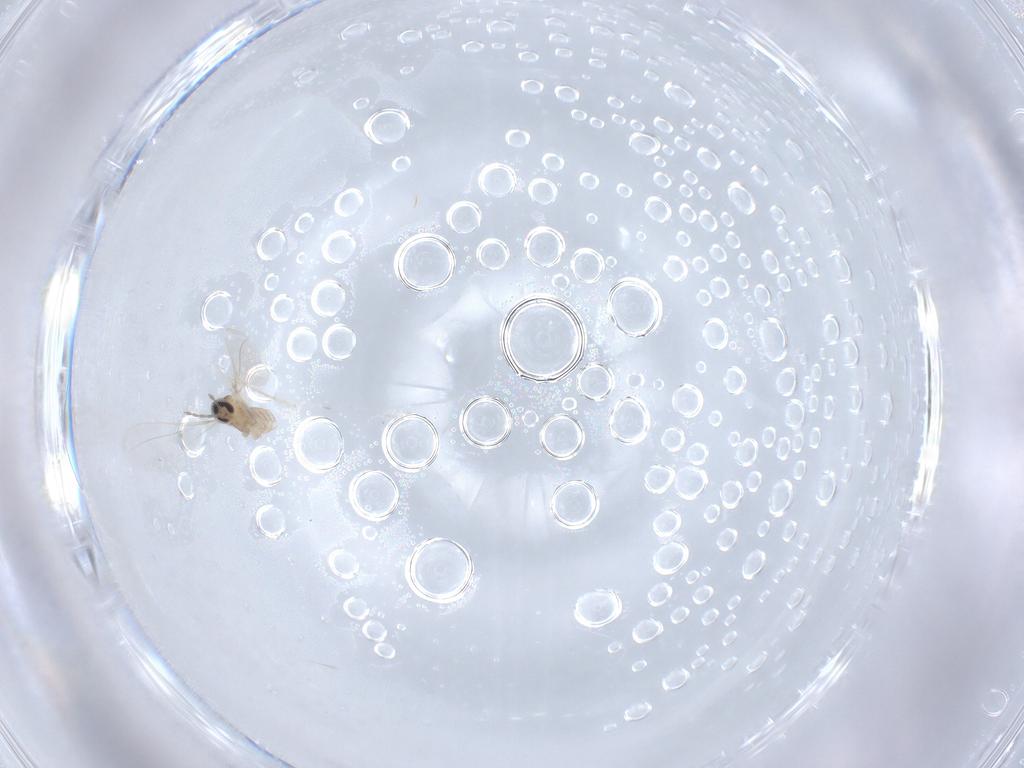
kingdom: Animalia
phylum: Arthropoda
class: Insecta
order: Diptera
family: Cecidomyiidae
